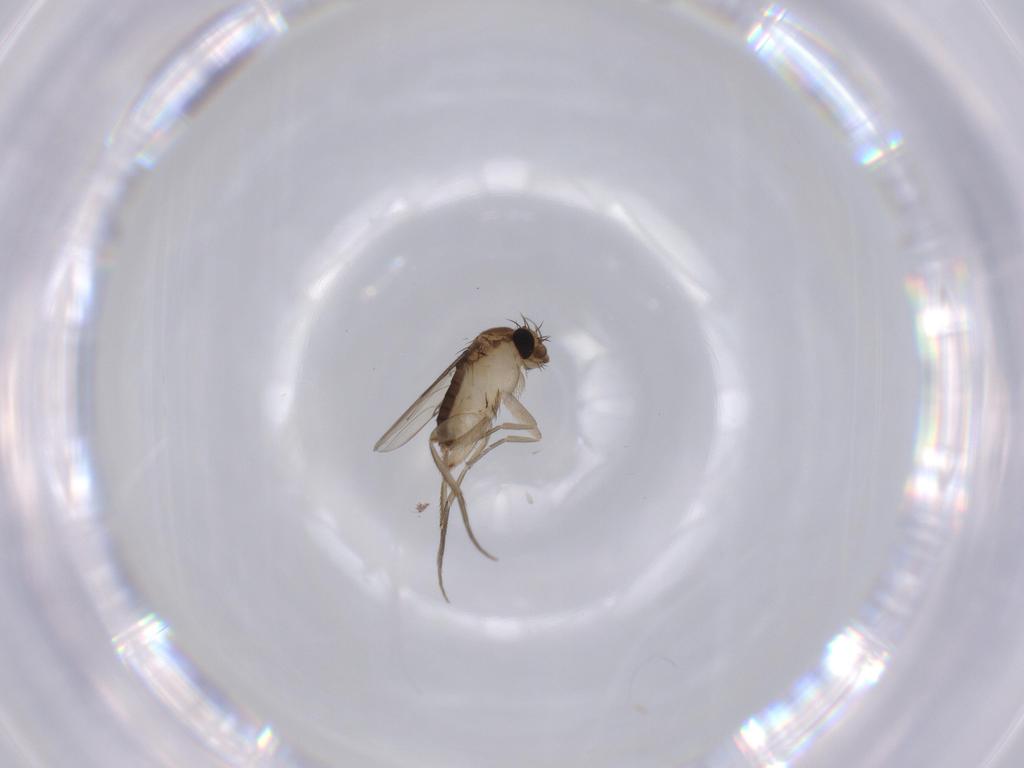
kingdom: Animalia
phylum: Arthropoda
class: Insecta
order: Diptera
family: Phoridae
